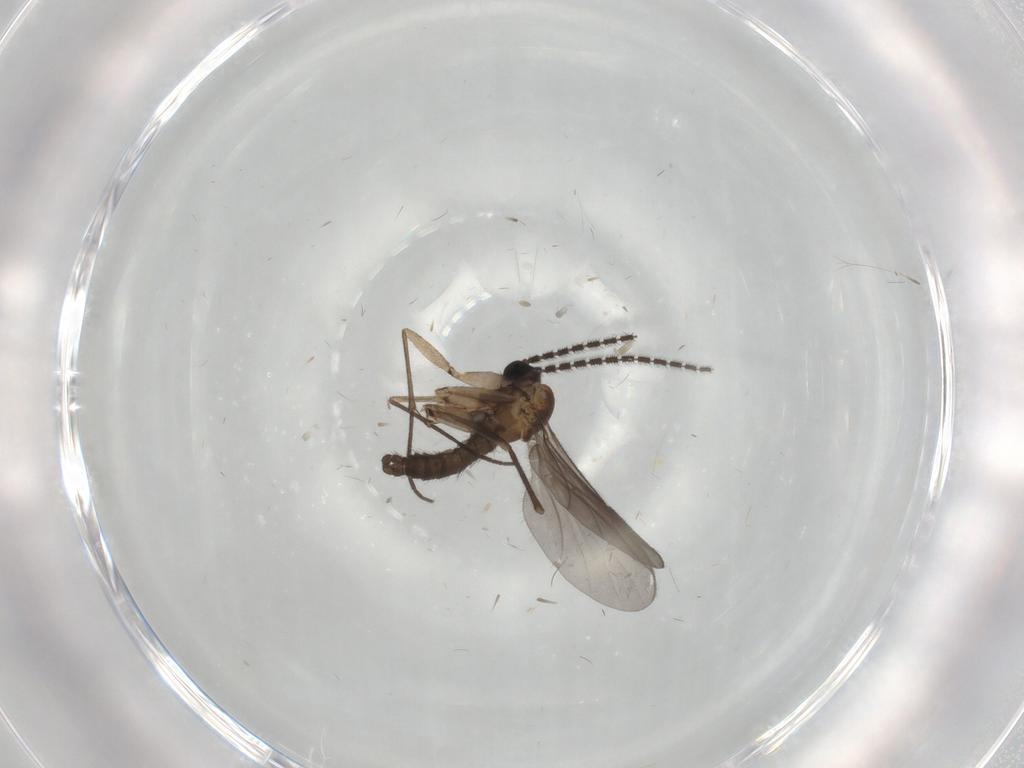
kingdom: Animalia
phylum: Arthropoda
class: Insecta
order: Diptera
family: Sciaridae
